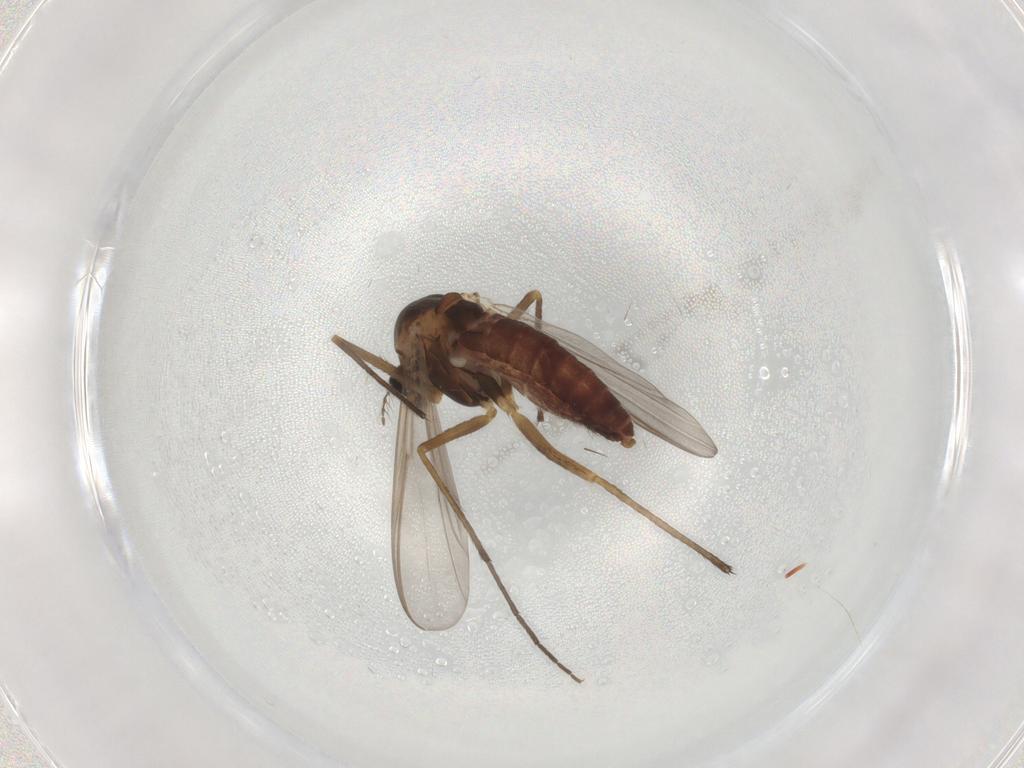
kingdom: Animalia
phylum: Arthropoda
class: Insecta
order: Diptera
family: Chironomidae
